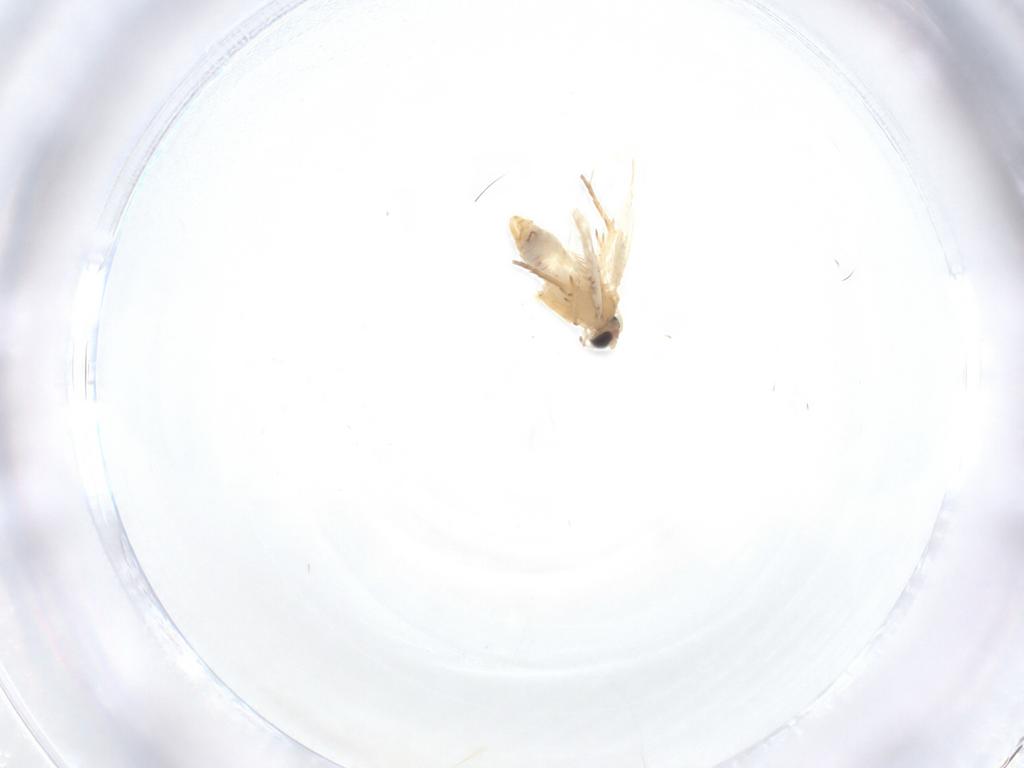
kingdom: Animalia
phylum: Arthropoda
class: Insecta
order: Lepidoptera
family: Nepticulidae
